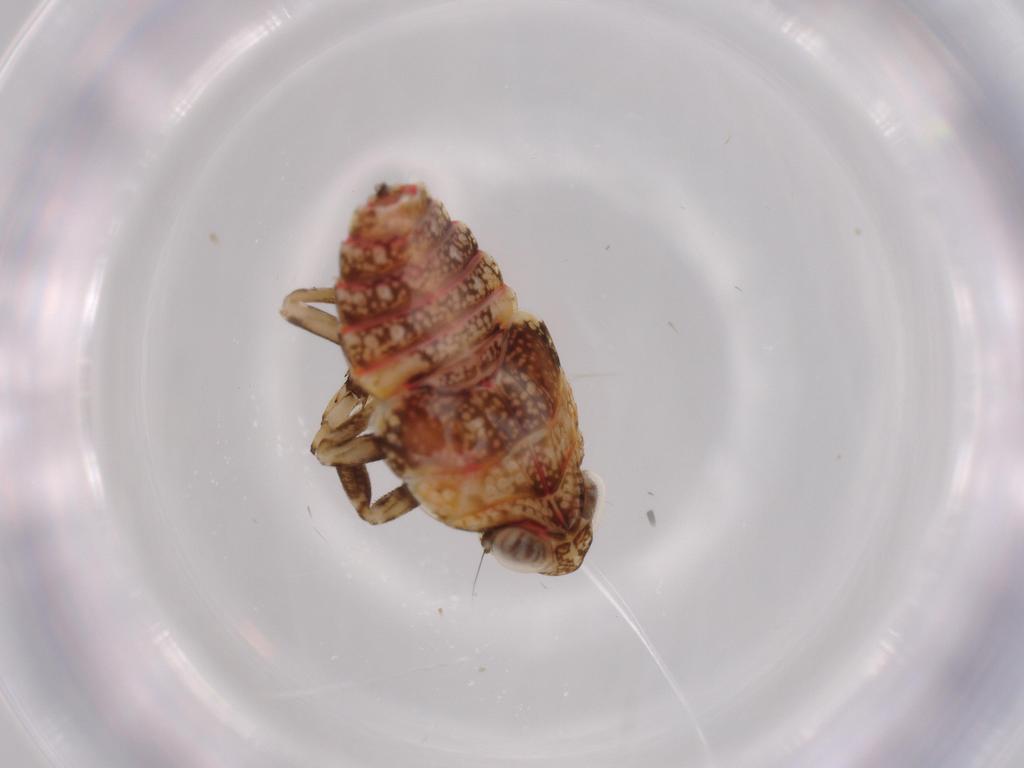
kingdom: Animalia
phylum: Arthropoda
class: Insecta
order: Hemiptera
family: Issidae
